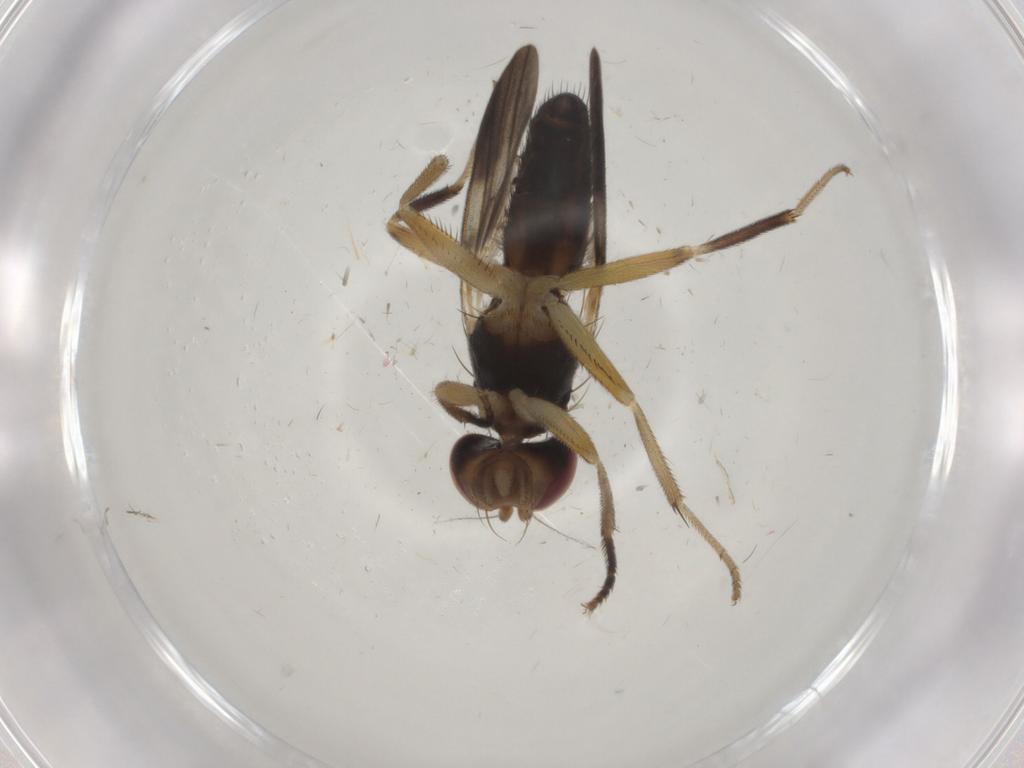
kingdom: Animalia
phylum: Arthropoda
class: Insecta
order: Diptera
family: Clusiidae
